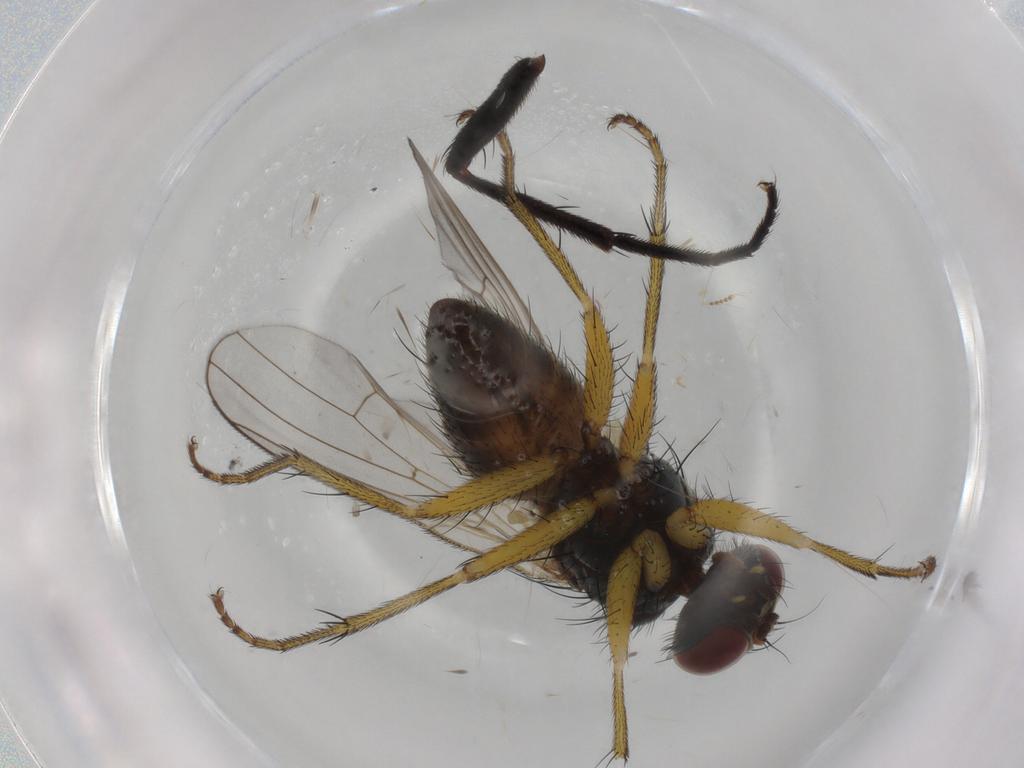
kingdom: Animalia
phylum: Arthropoda
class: Insecta
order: Diptera
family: Muscidae
